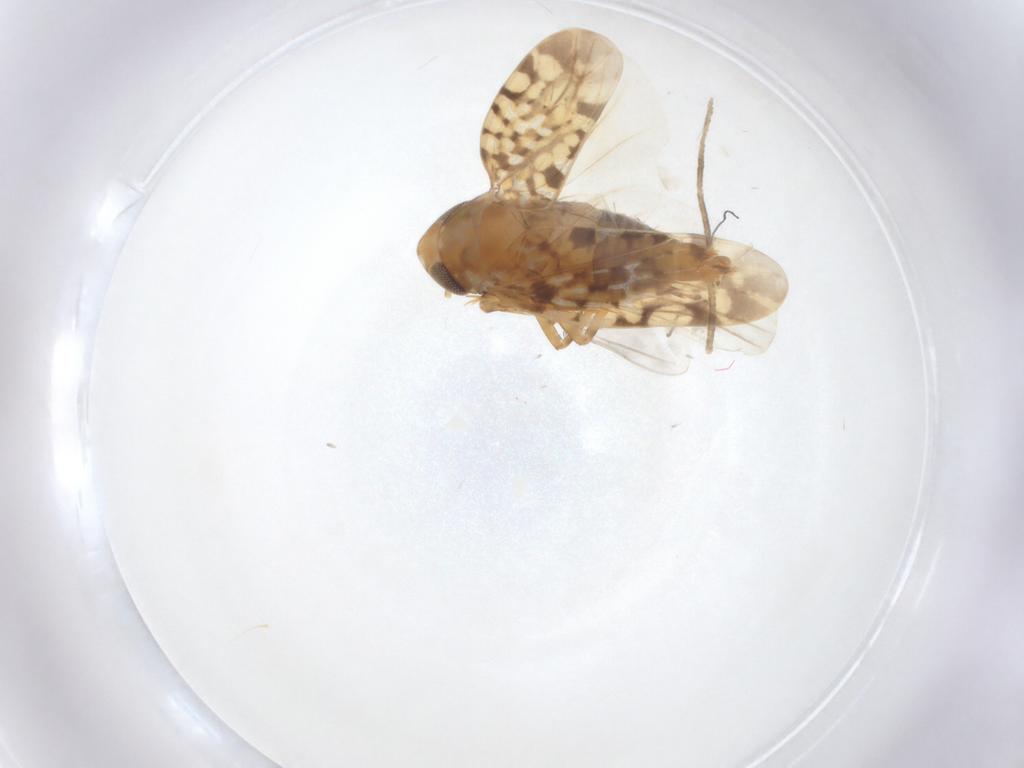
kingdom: Animalia
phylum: Arthropoda
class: Insecta
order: Hemiptera
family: Cicadellidae
